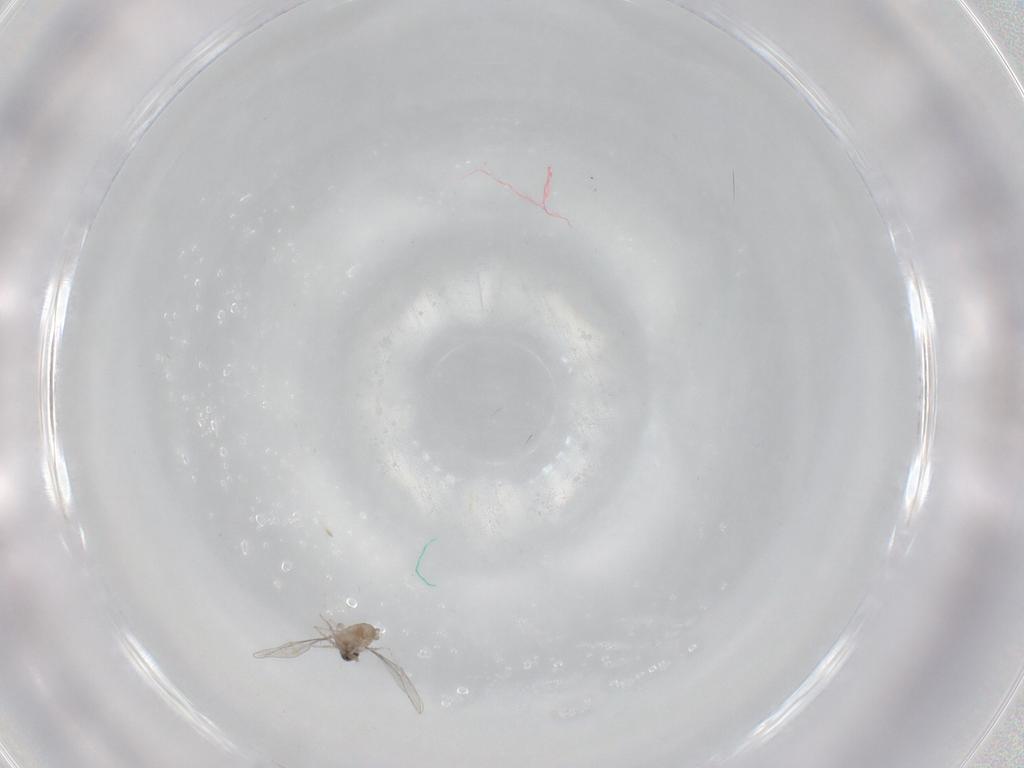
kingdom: Animalia
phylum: Arthropoda
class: Insecta
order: Diptera
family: Cecidomyiidae
